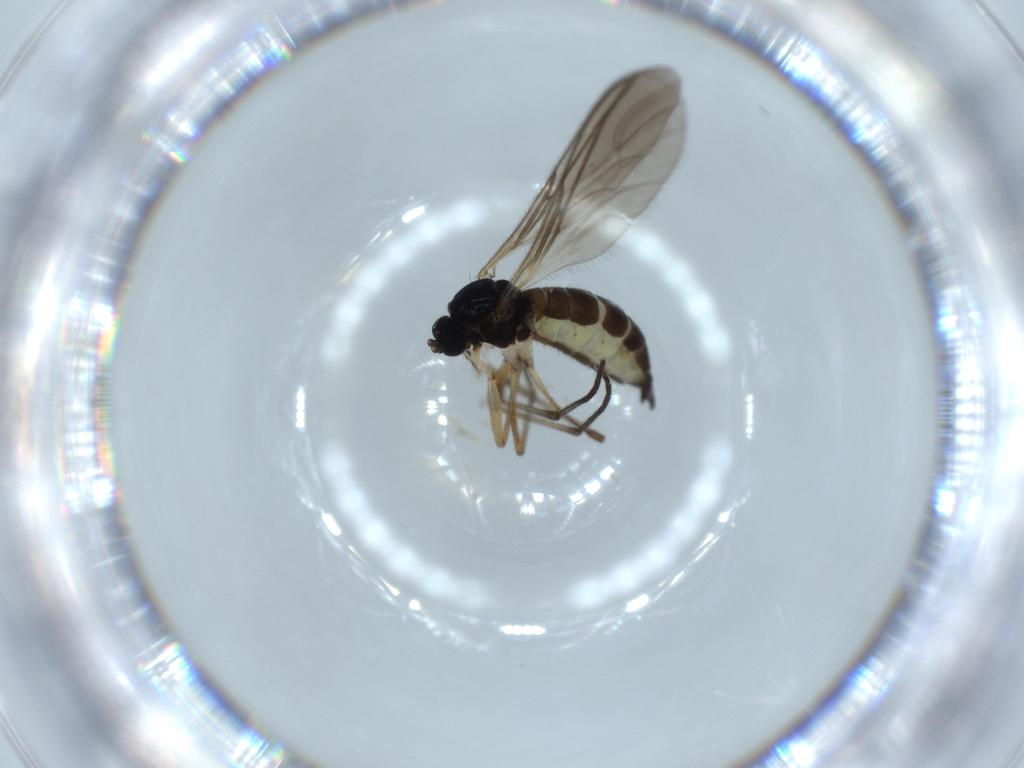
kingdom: Animalia
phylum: Arthropoda
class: Insecta
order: Diptera
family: Sciaridae
